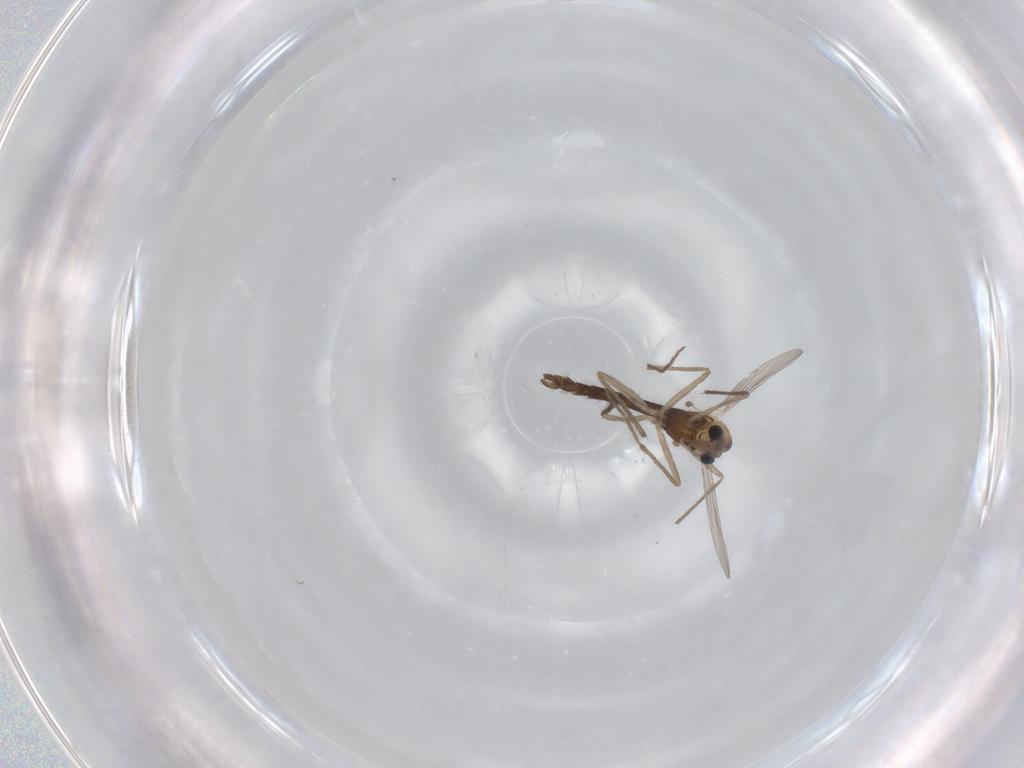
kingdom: Animalia
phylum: Arthropoda
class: Insecta
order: Diptera
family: Chironomidae
